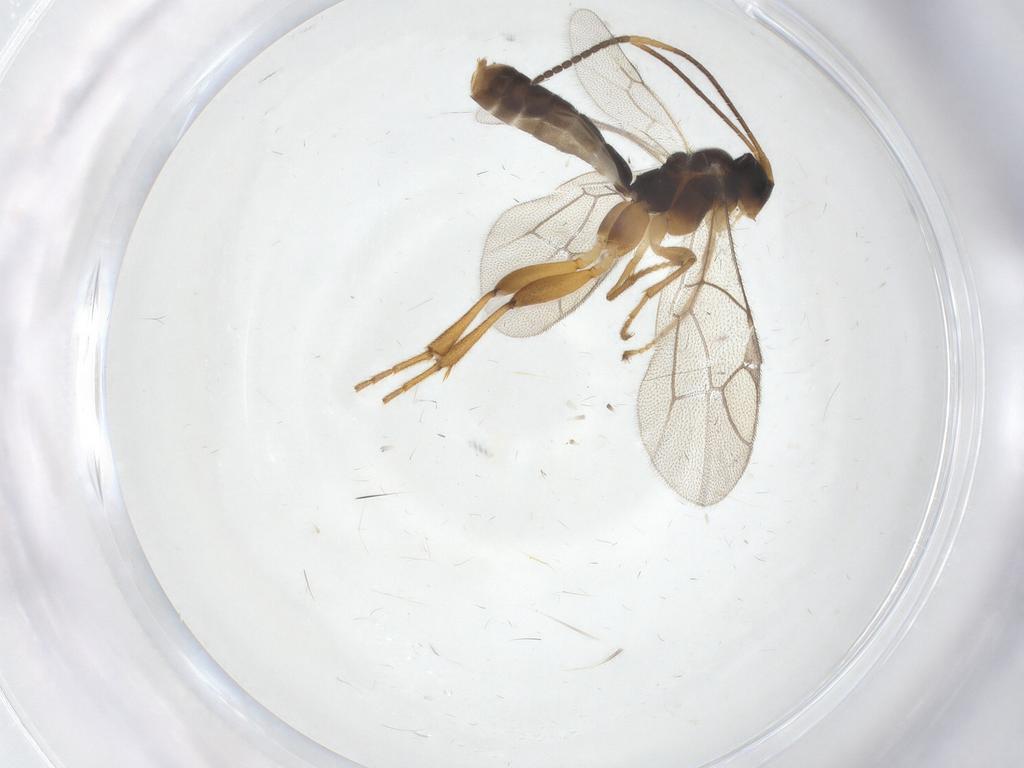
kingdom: Animalia
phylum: Arthropoda
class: Insecta
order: Hymenoptera
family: Ichneumonidae
